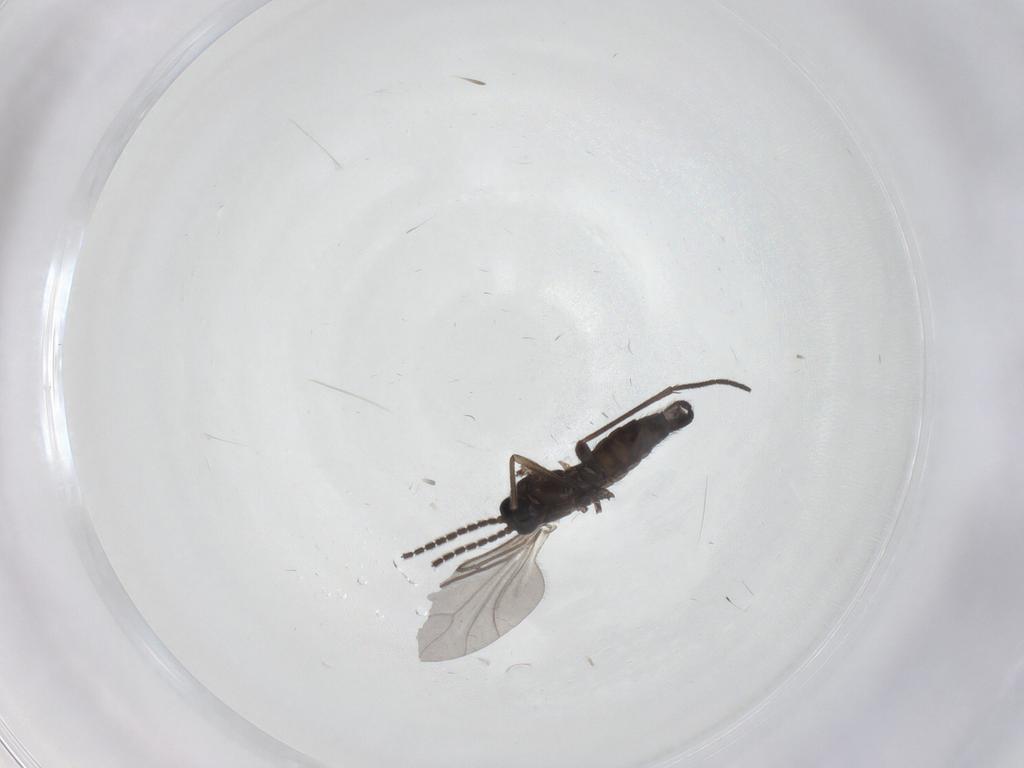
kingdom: Animalia
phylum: Arthropoda
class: Insecta
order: Diptera
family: Sciaridae
